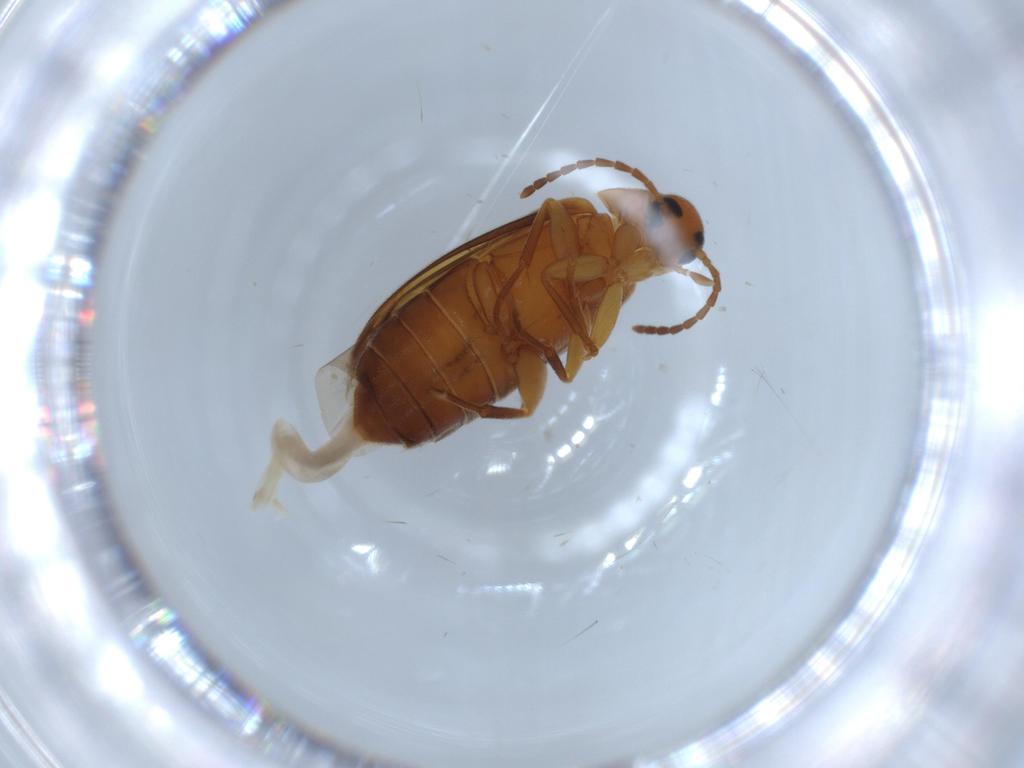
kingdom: Animalia
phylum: Arthropoda
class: Insecta
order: Coleoptera
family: Scraptiidae
